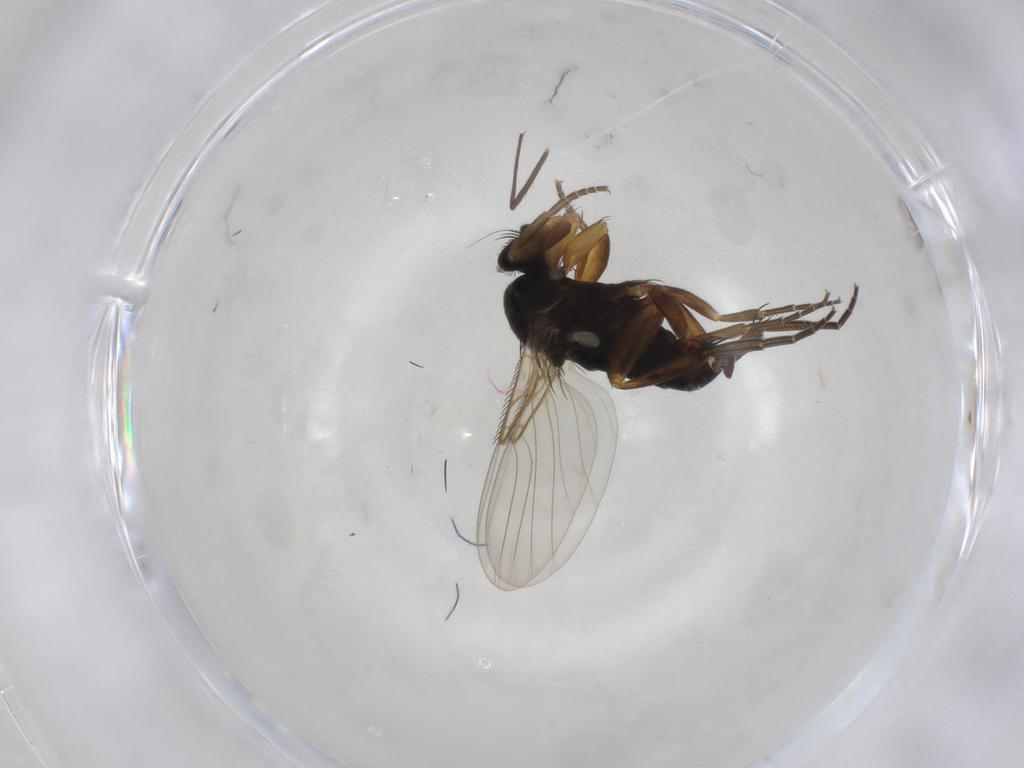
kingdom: Animalia
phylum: Arthropoda
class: Insecta
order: Diptera
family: Phoridae
